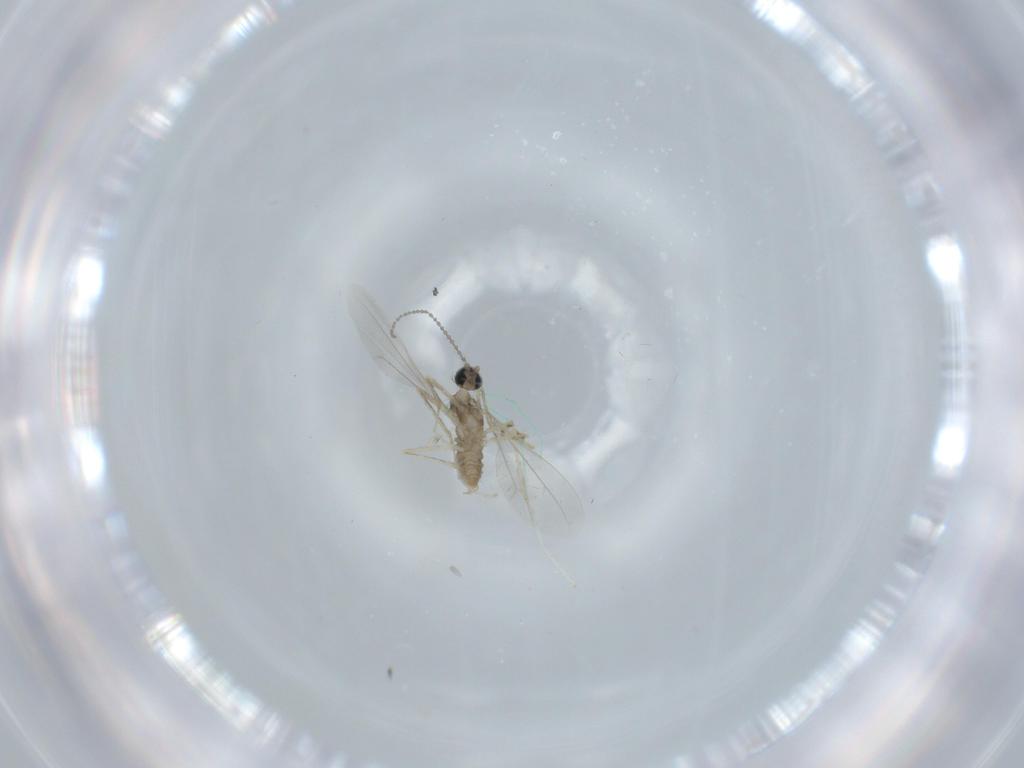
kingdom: Animalia
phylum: Arthropoda
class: Insecta
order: Diptera
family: Cecidomyiidae
